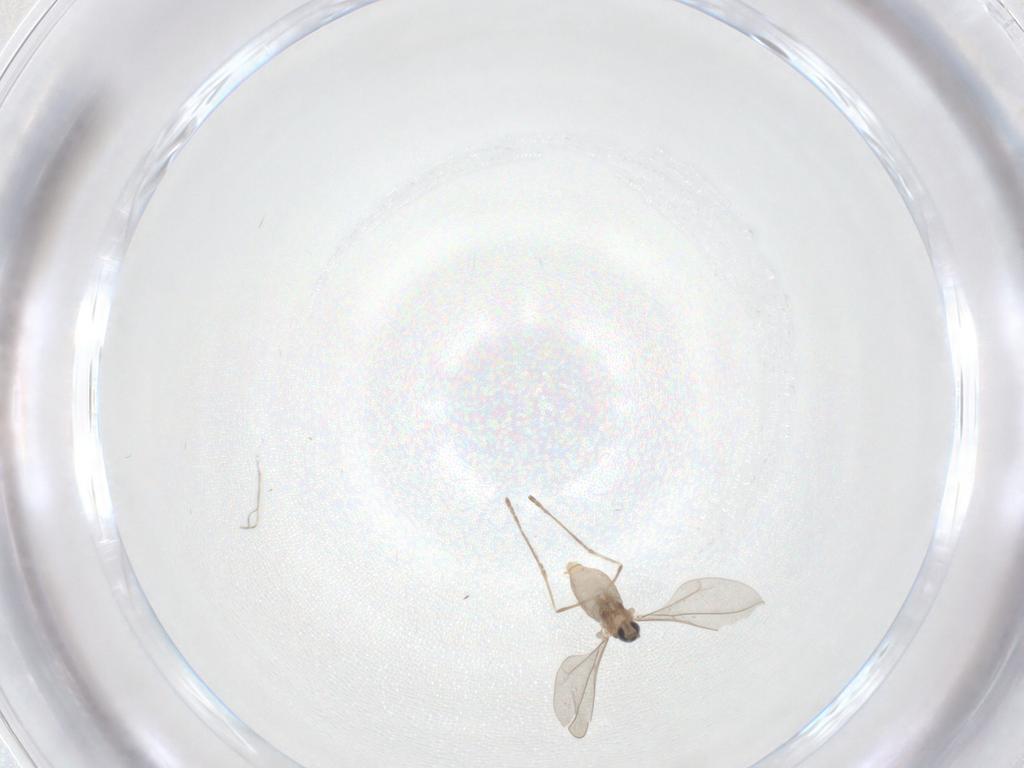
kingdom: Animalia
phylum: Arthropoda
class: Insecta
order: Diptera
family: Cecidomyiidae
